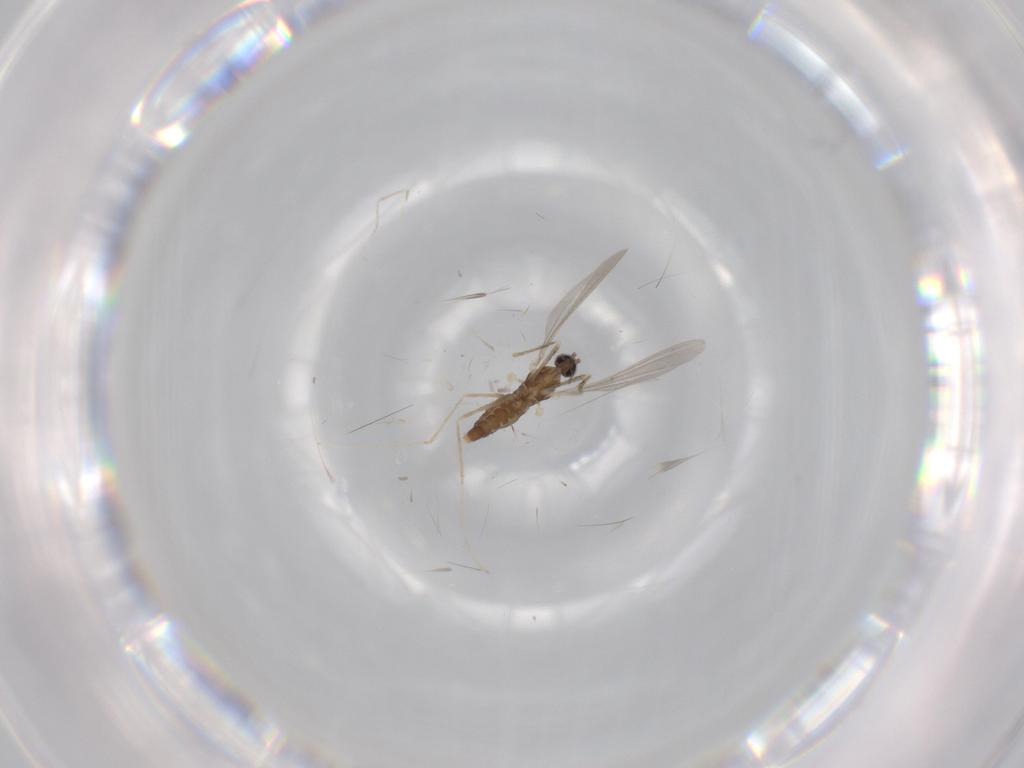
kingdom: Animalia
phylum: Arthropoda
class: Insecta
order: Diptera
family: Cecidomyiidae
